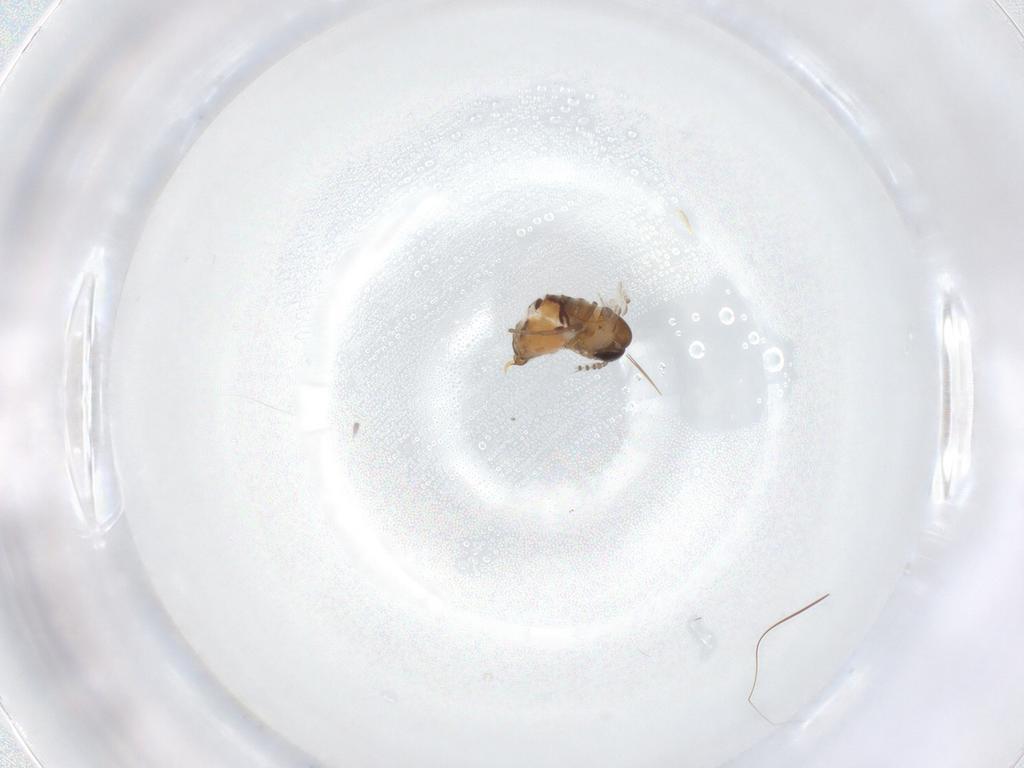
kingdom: Animalia
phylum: Arthropoda
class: Insecta
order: Diptera
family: Psychodidae
